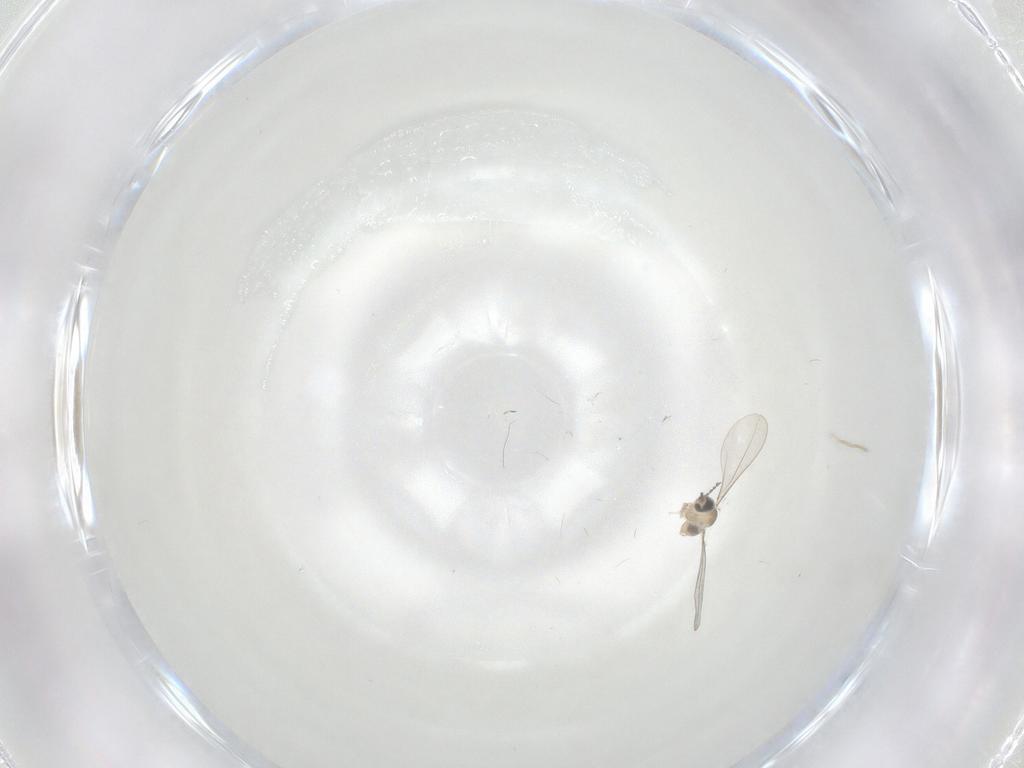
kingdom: Animalia
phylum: Arthropoda
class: Insecta
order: Diptera
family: Cecidomyiidae
